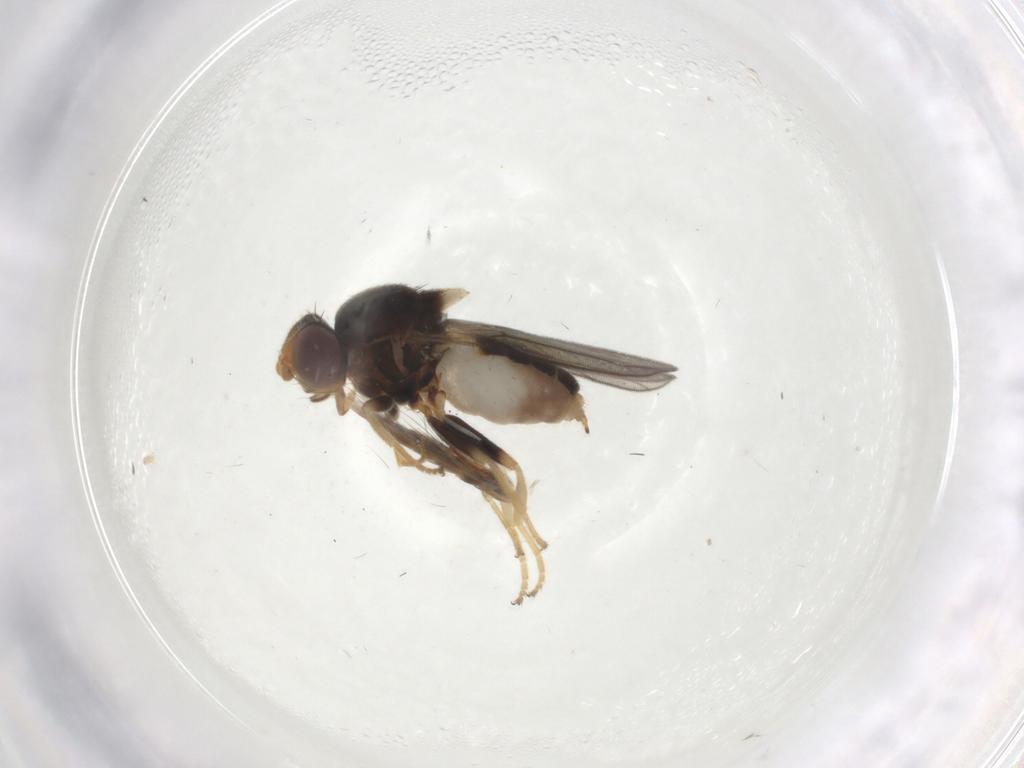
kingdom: Animalia
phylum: Arthropoda
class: Insecta
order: Diptera
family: Chloropidae
